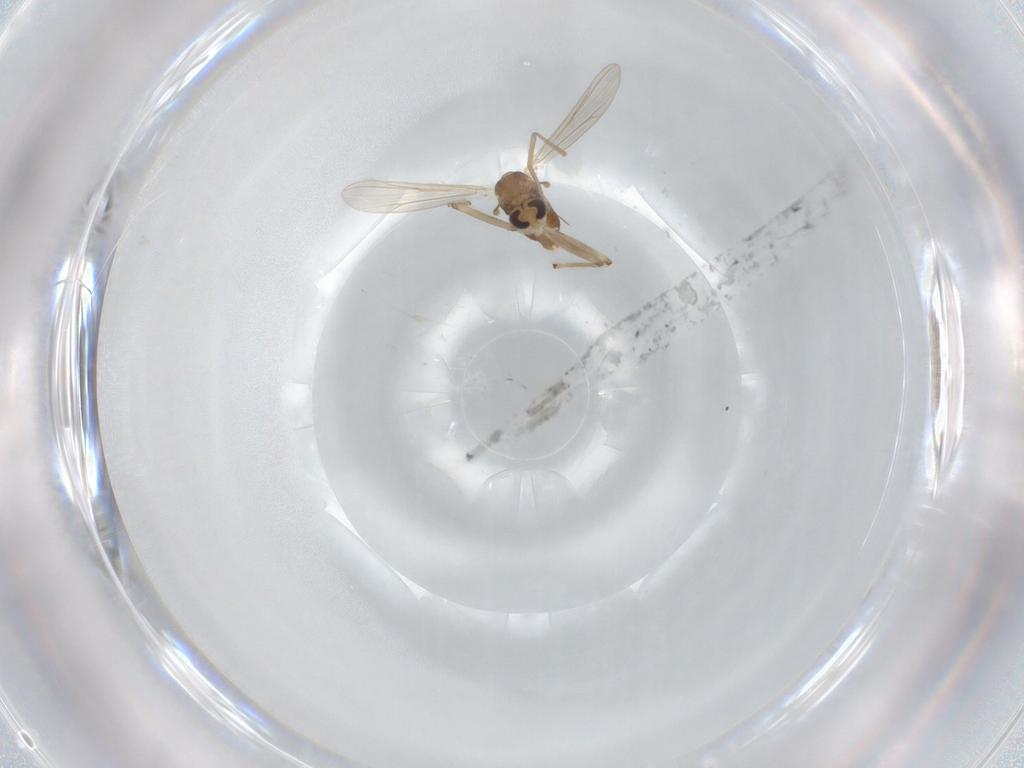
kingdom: Animalia
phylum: Arthropoda
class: Insecta
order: Diptera
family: Chironomidae
